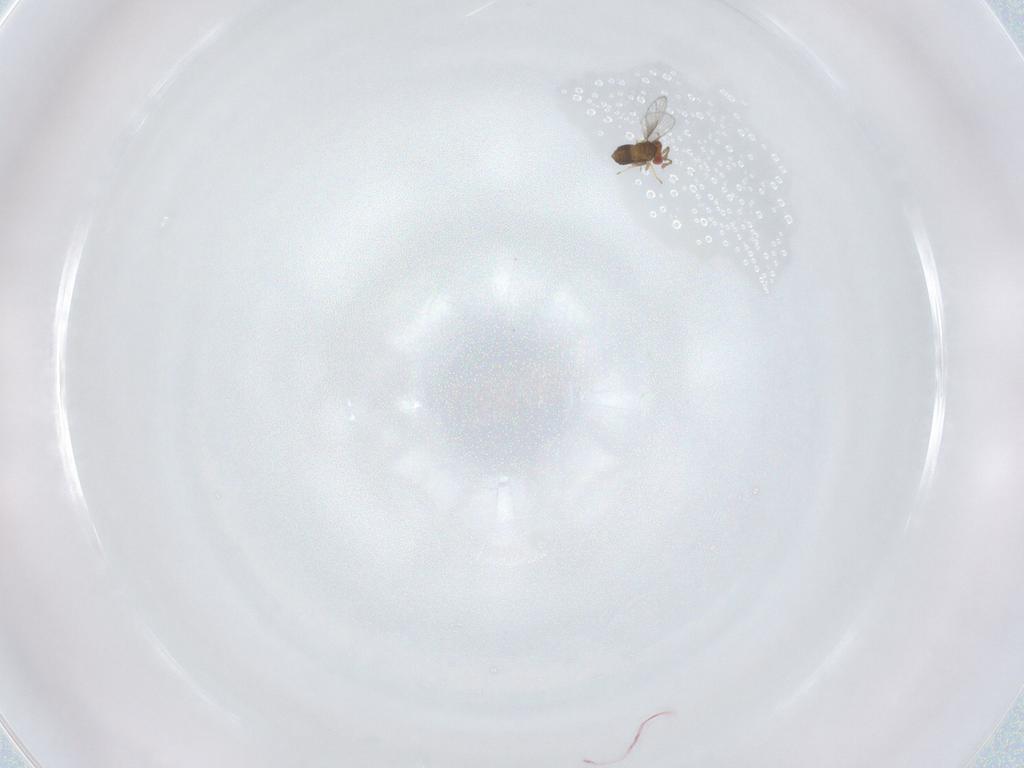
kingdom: Animalia
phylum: Arthropoda
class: Insecta
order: Hymenoptera
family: Trichogrammatidae
